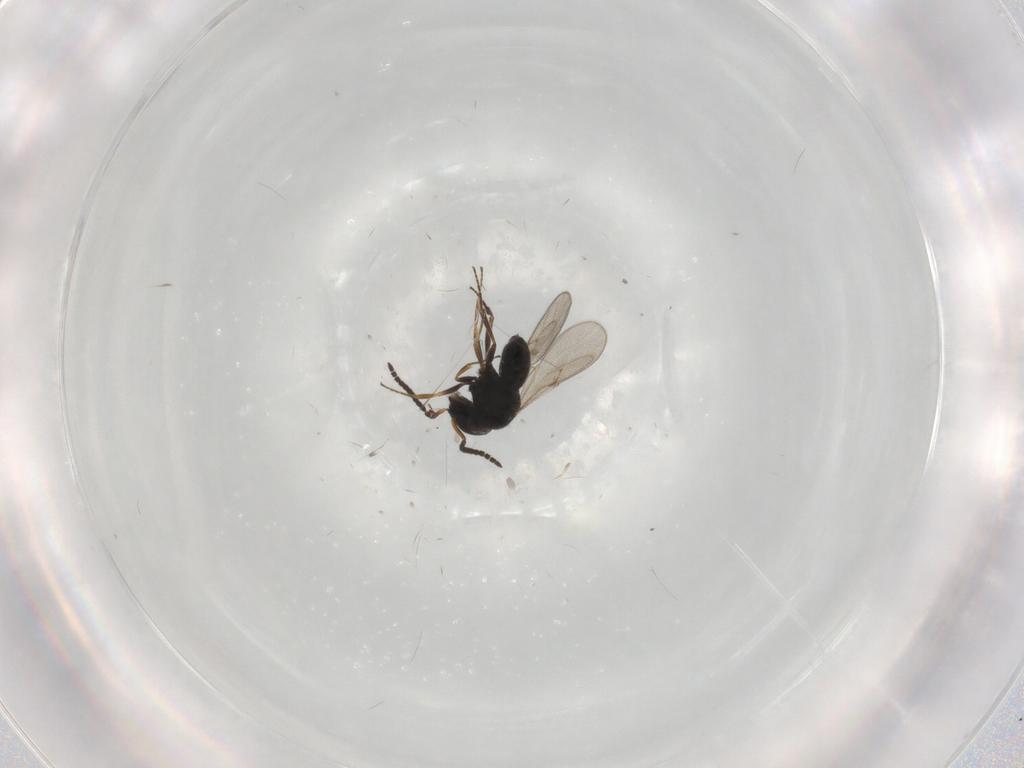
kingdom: Animalia
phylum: Arthropoda
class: Insecta
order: Hymenoptera
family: Scelionidae
